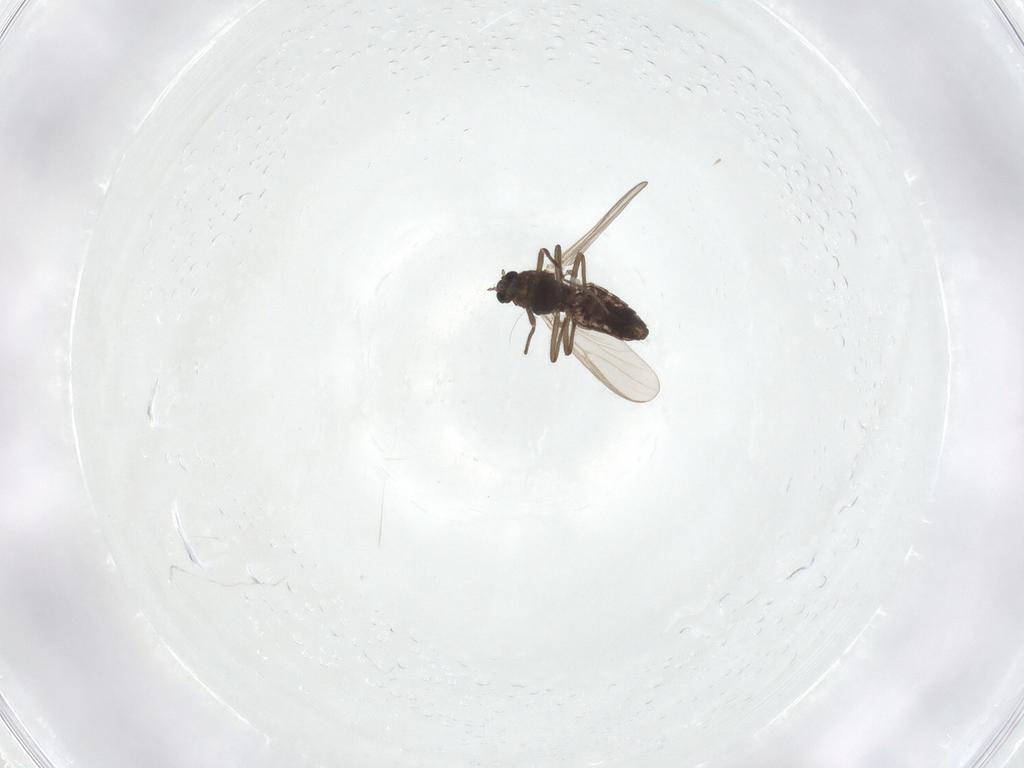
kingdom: Animalia
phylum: Arthropoda
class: Insecta
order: Diptera
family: Chironomidae
